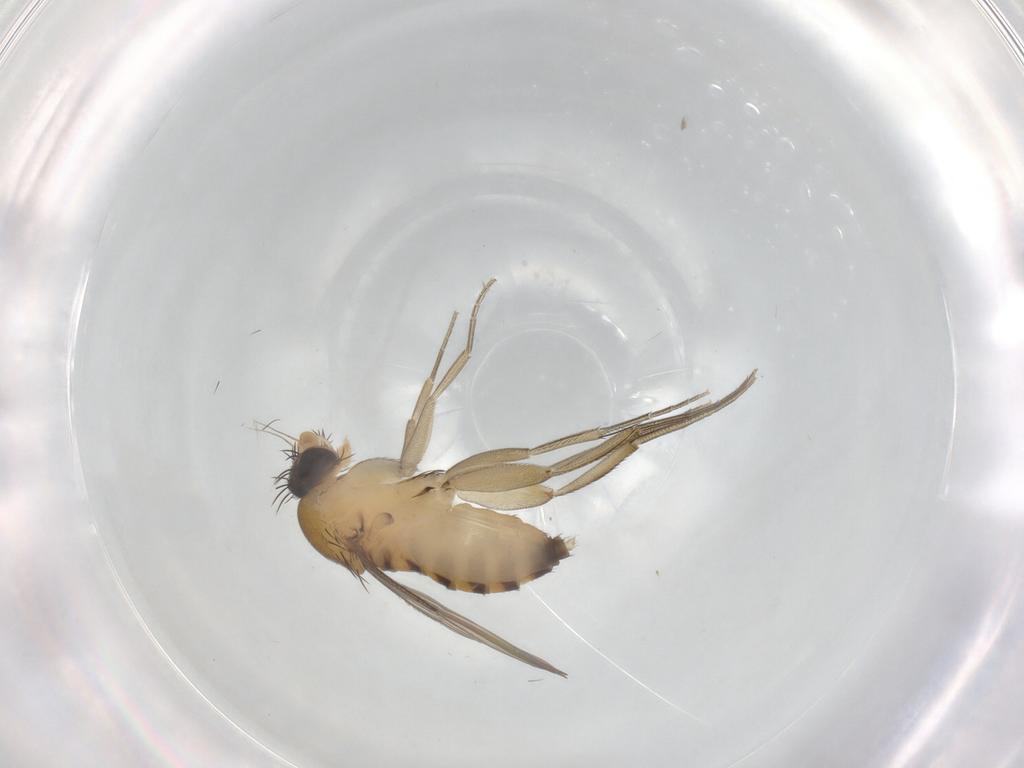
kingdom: Animalia
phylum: Arthropoda
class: Insecta
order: Diptera
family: Phoridae
